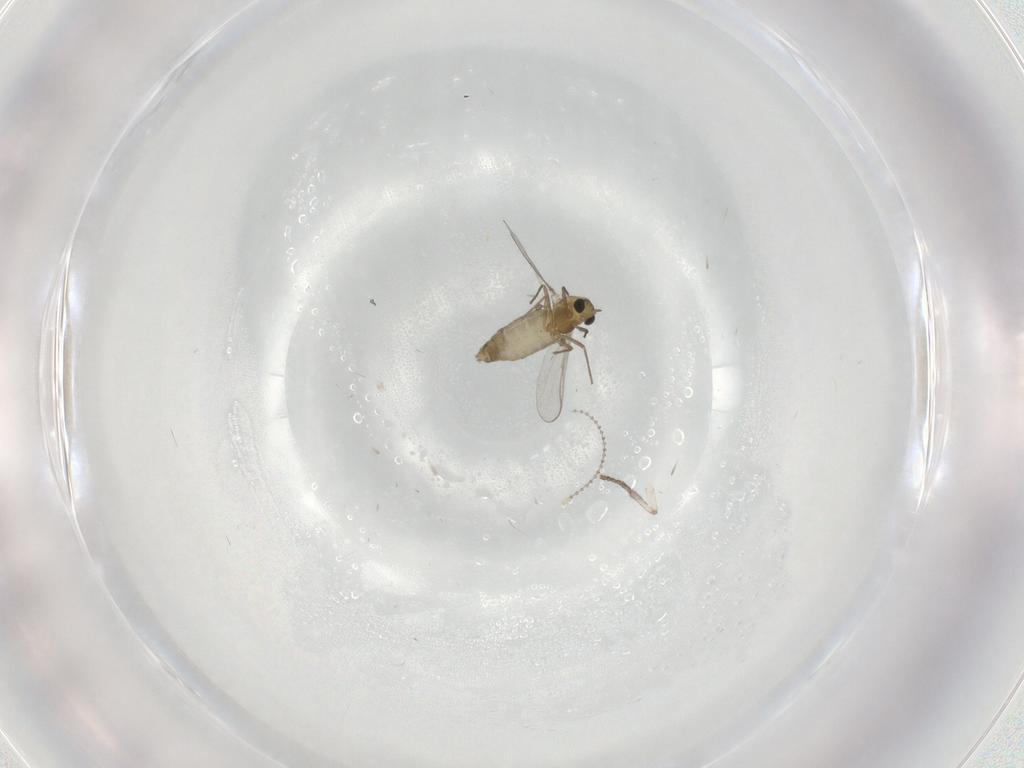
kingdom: Animalia
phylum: Arthropoda
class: Insecta
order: Diptera
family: Chironomidae
